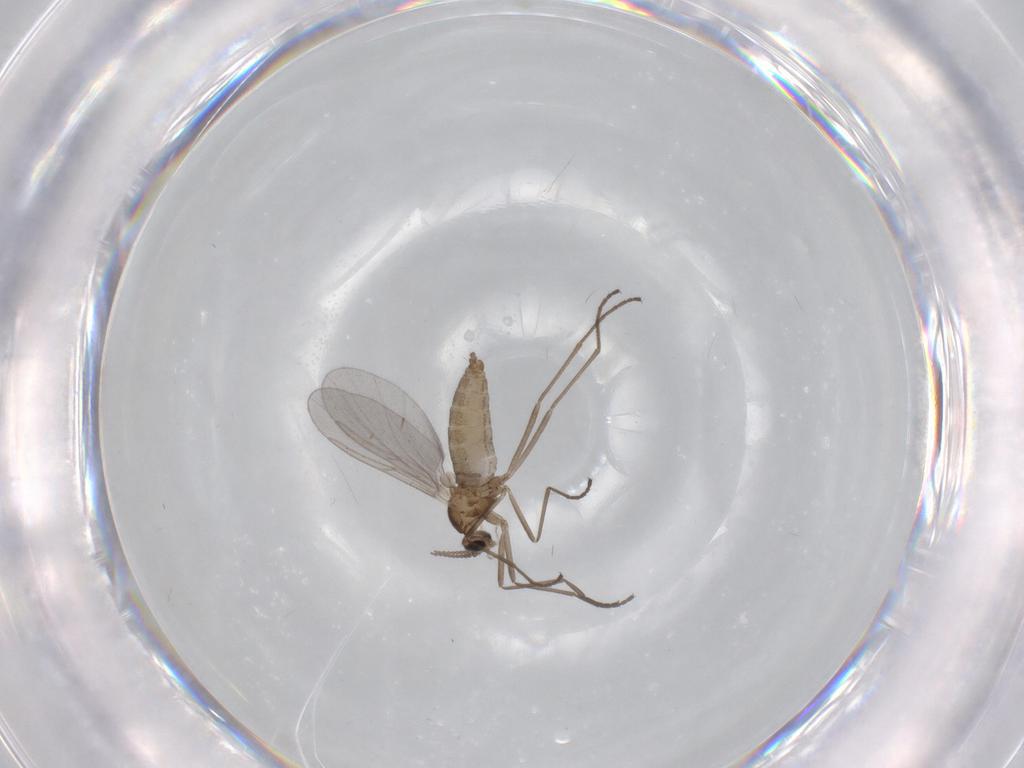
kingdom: Animalia
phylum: Arthropoda
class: Insecta
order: Diptera
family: Cecidomyiidae
